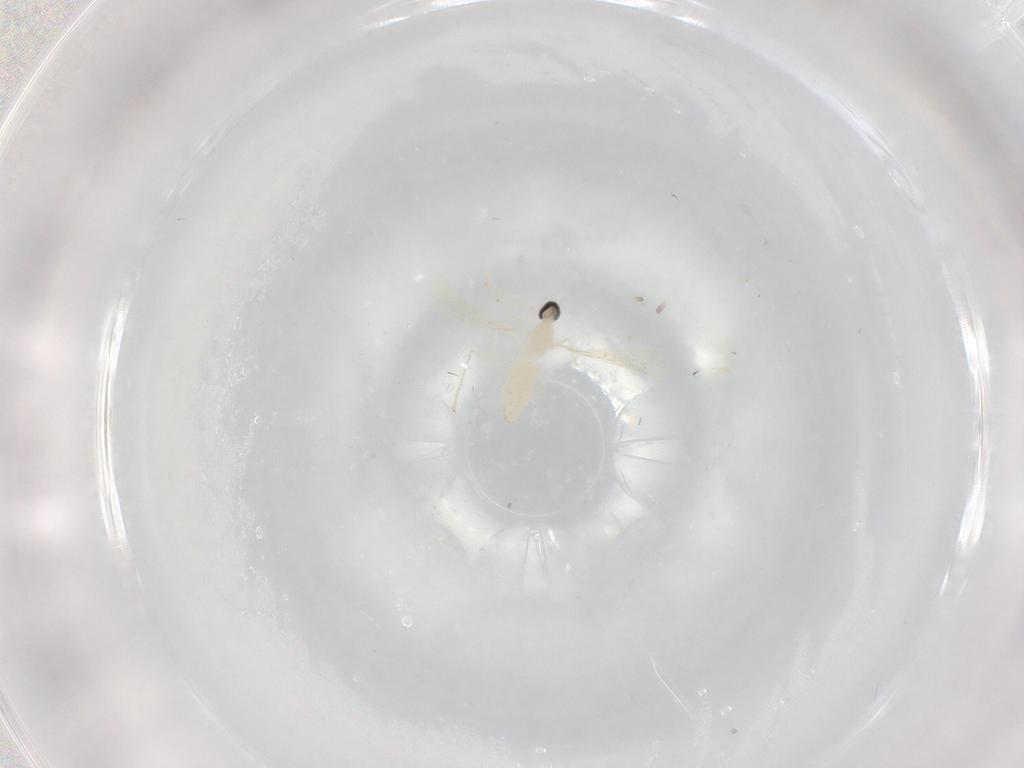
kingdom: Animalia
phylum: Arthropoda
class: Insecta
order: Diptera
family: Cecidomyiidae
